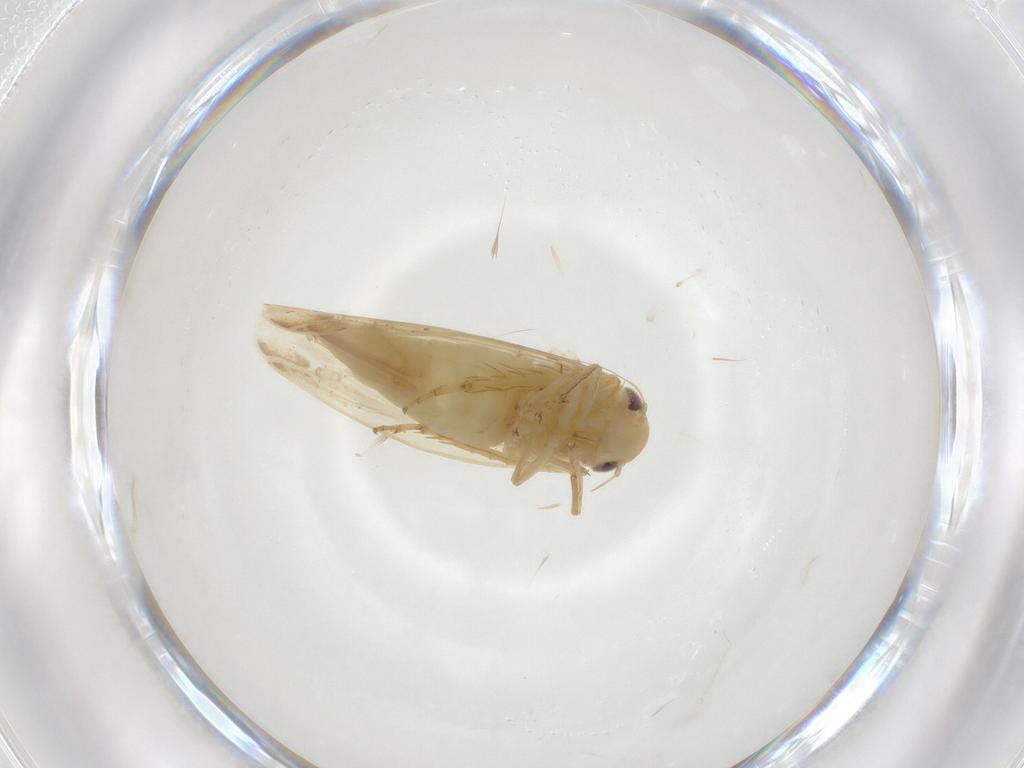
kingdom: Animalia
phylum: Arthropoda
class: Insecta
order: Hemiptera
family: Cicadellidae
